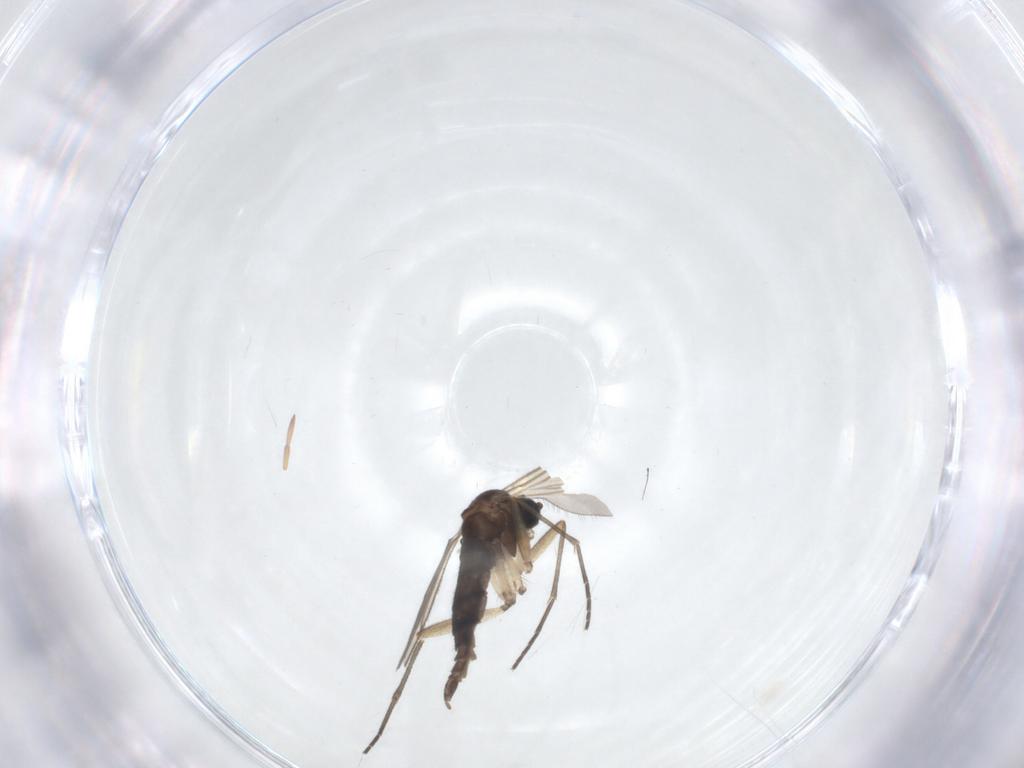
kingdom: Animalia
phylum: Arthropoda
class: Insecta
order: Diptera
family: Sciaridae
